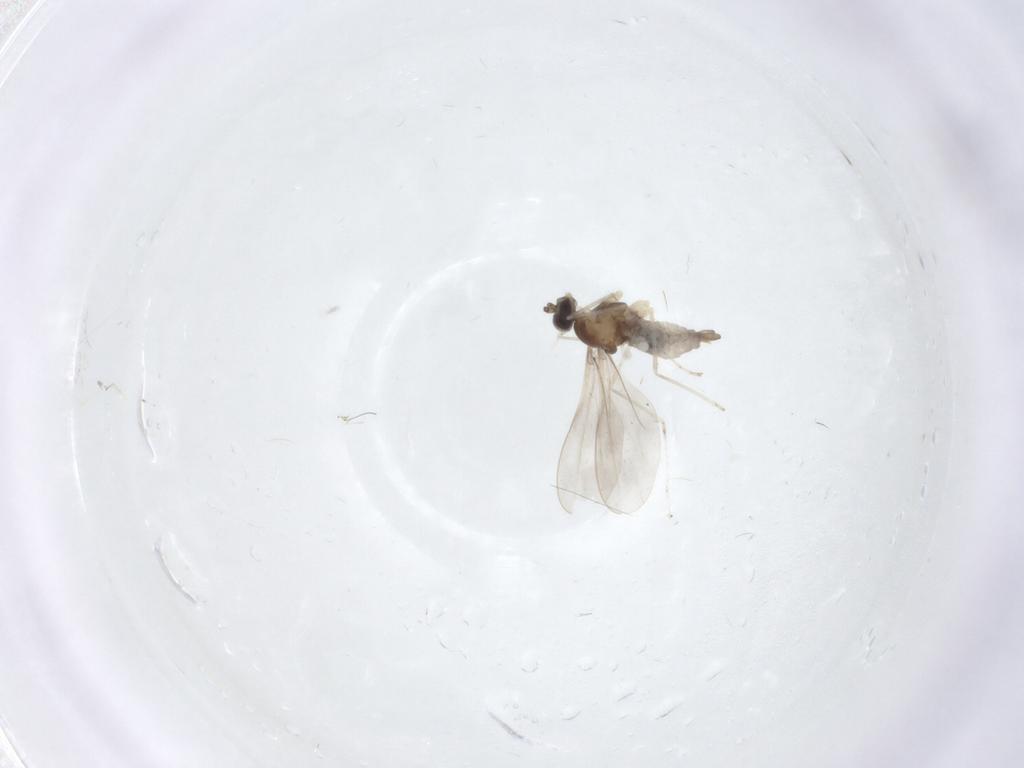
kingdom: Animalia
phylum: Arthropoda
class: Insecta
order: Diptera
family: Psychodidae
